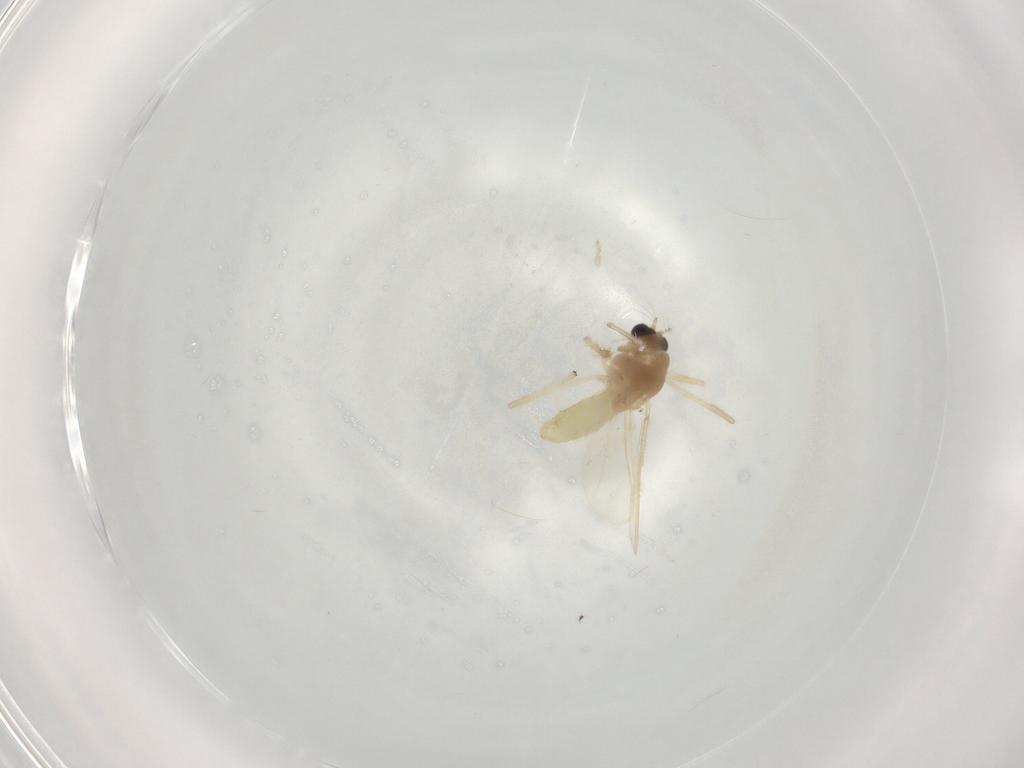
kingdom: Animalia
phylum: Arthropoda
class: Insecta
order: Diptera
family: Chironomidae
